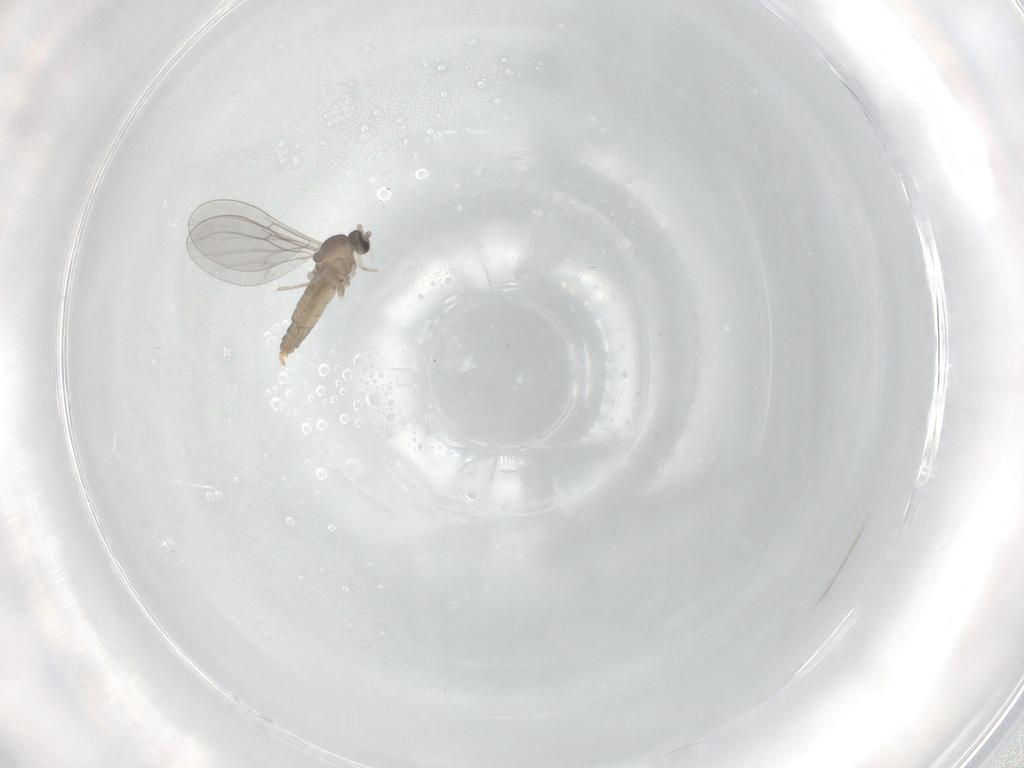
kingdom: Animalia
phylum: Arthropoda
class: Insecta
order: Diptera
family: Cecidomyiidae
